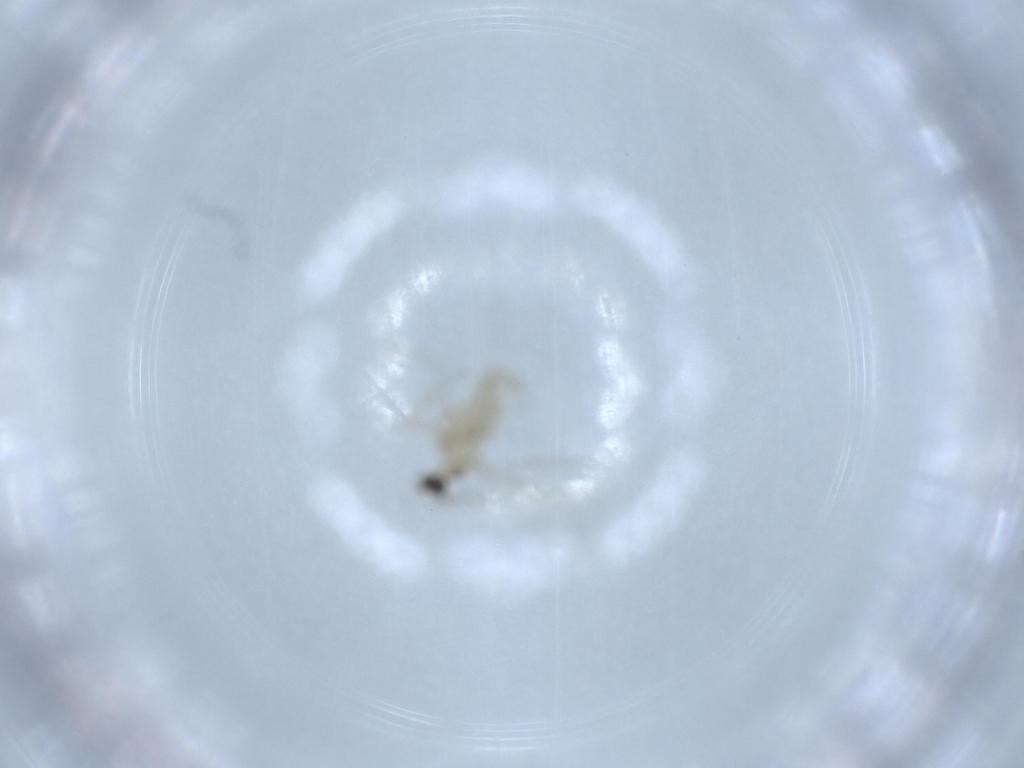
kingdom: Animalia
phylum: Arthropoda
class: Insecta
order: Diptera
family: Cecidomyiidae
